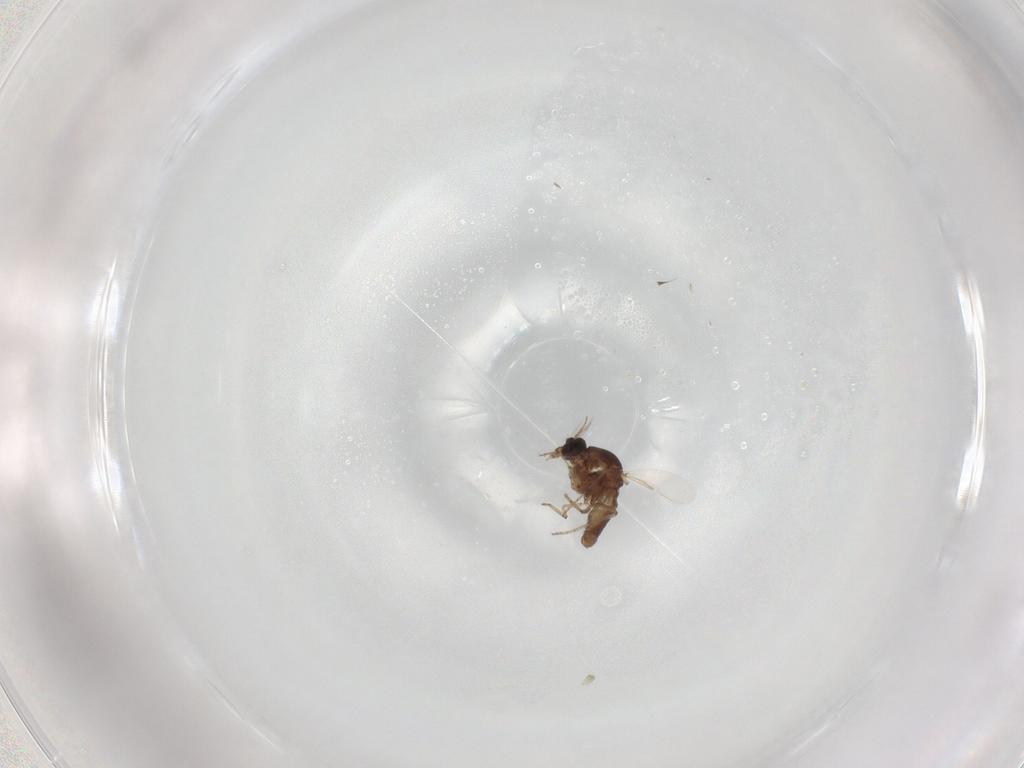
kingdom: Animalia
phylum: Arthropoda
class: Insecta
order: Diptera
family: Ceratopogonidae
